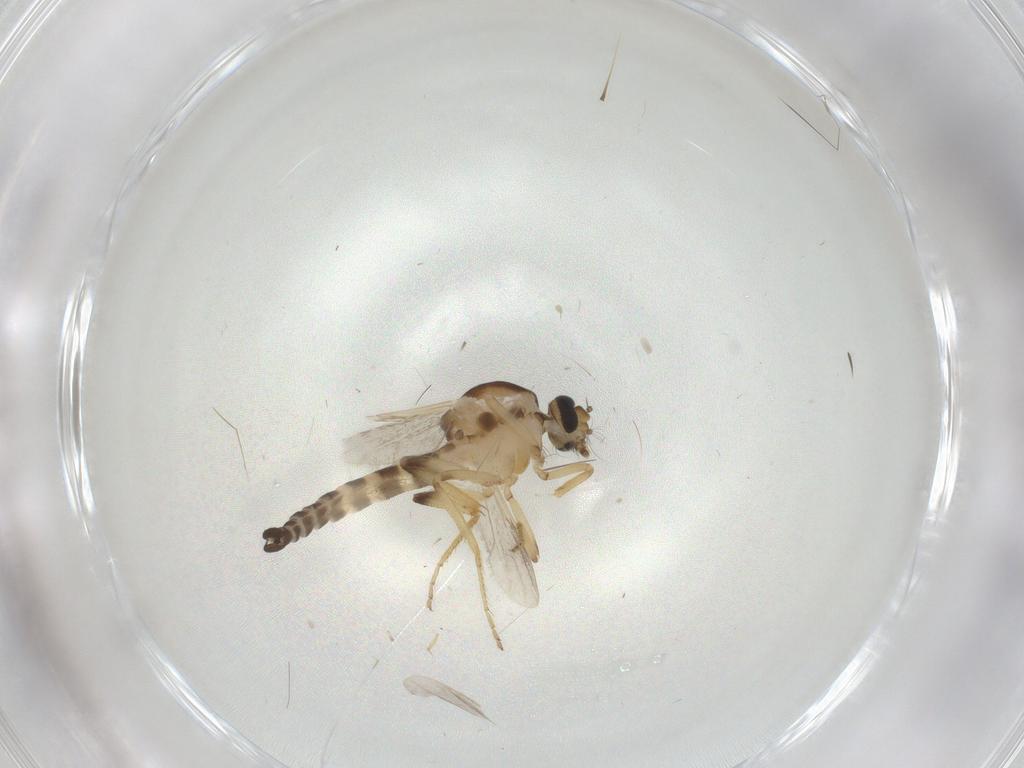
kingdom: Animalia
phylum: Arthropoda
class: Insecta
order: Diptera
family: Ceratopogonidae
